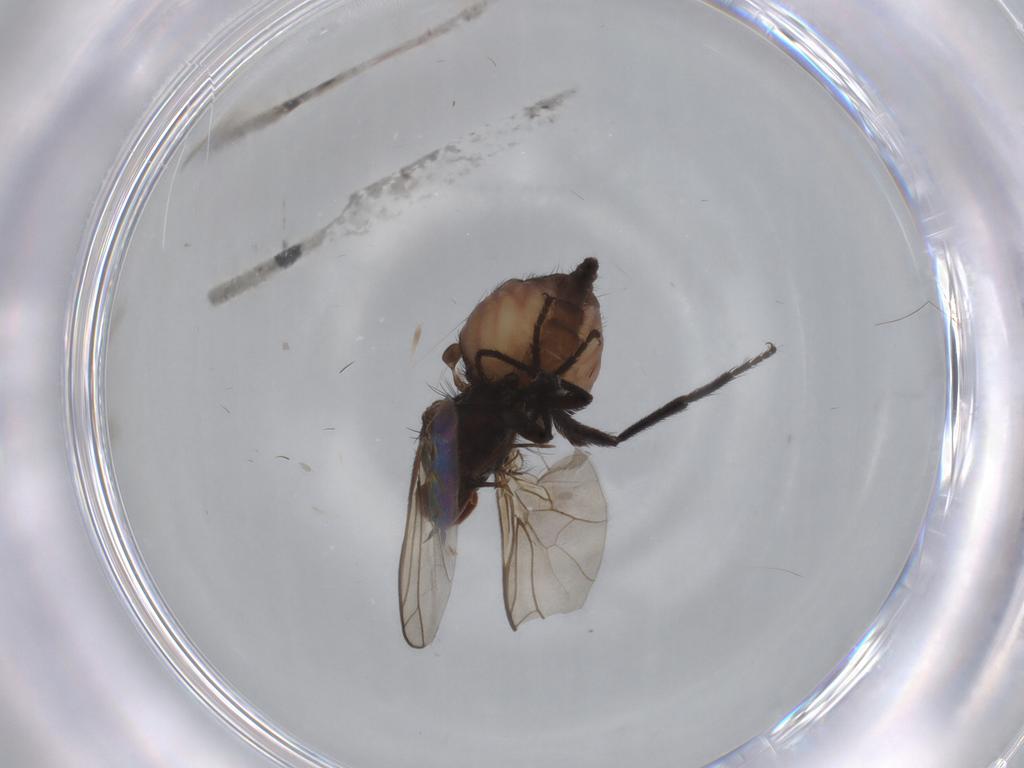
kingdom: Animalia
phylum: Arthropoda
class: Insecta
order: Diptera
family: Empididae
